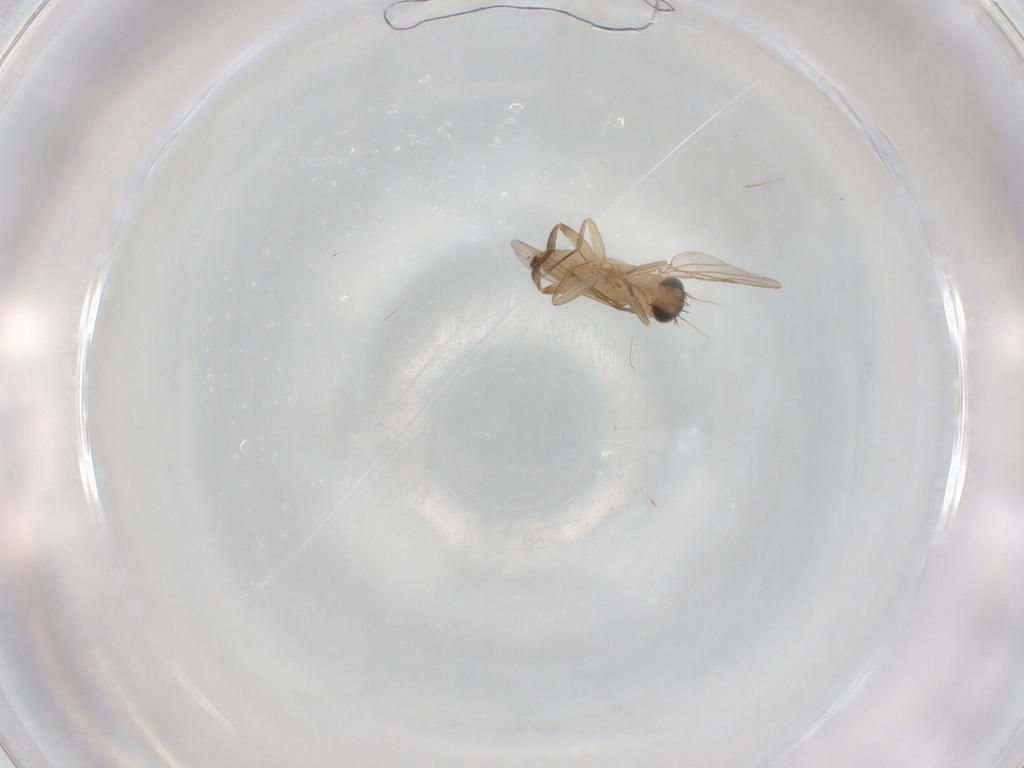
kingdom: Animalia
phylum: Arthropoda
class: Insecta
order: Diptera
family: Phoridae
